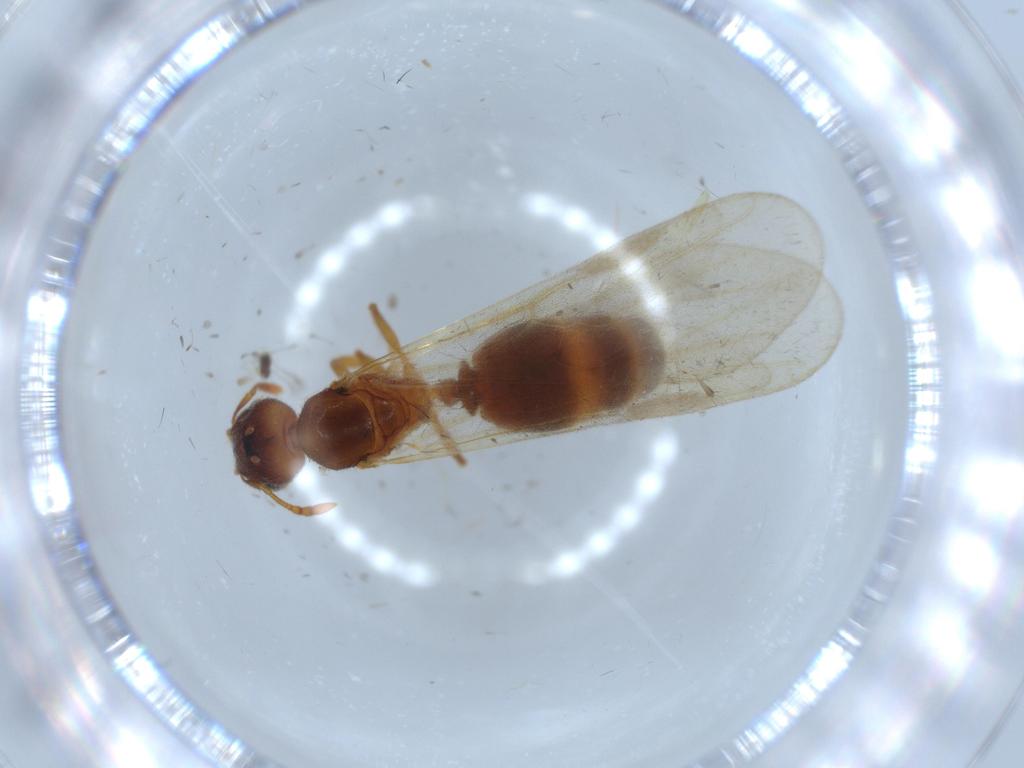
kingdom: Animalia
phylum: Arthropoda
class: Insecta
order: Hymenoptera
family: Formicidae
